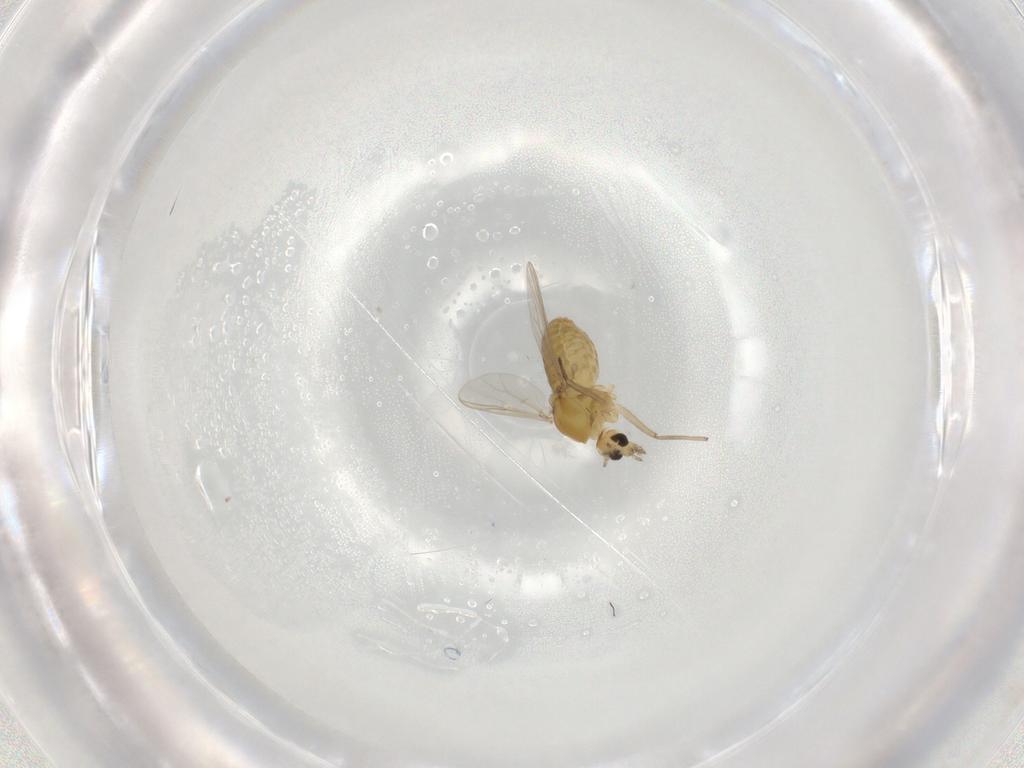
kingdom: Animalia
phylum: Arthropoda
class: Insecta
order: Diptera
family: Chironomidae
